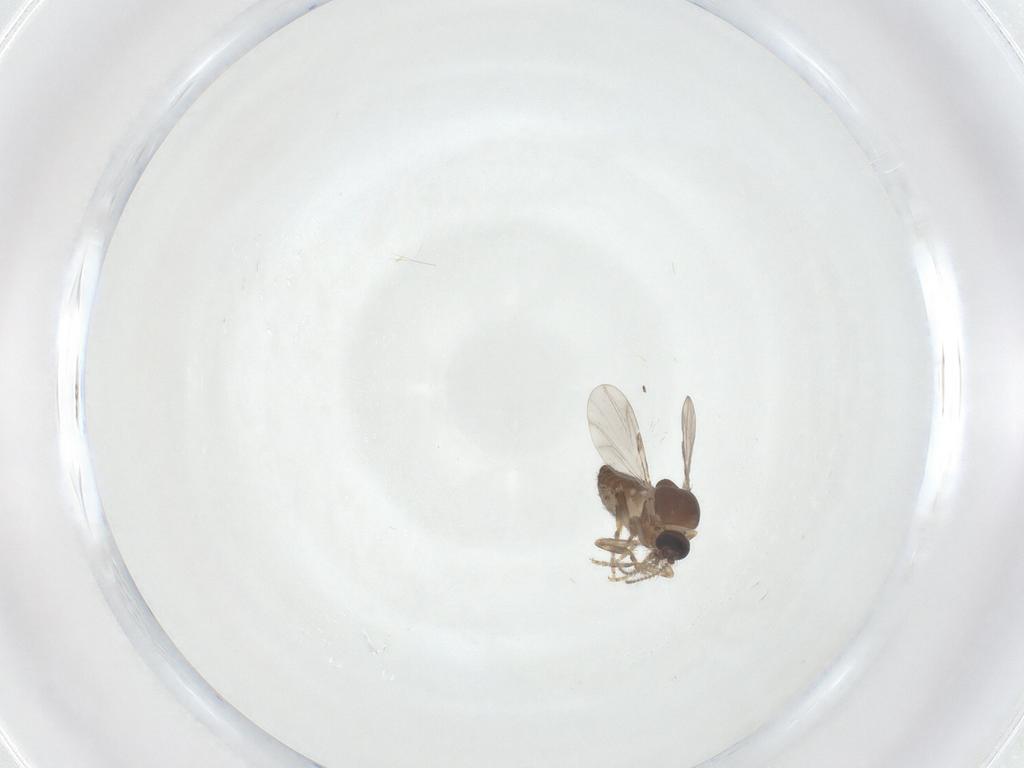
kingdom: Animalia
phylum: Arthropoda
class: Insecta
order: Diptera
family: Ceratopogonidae
